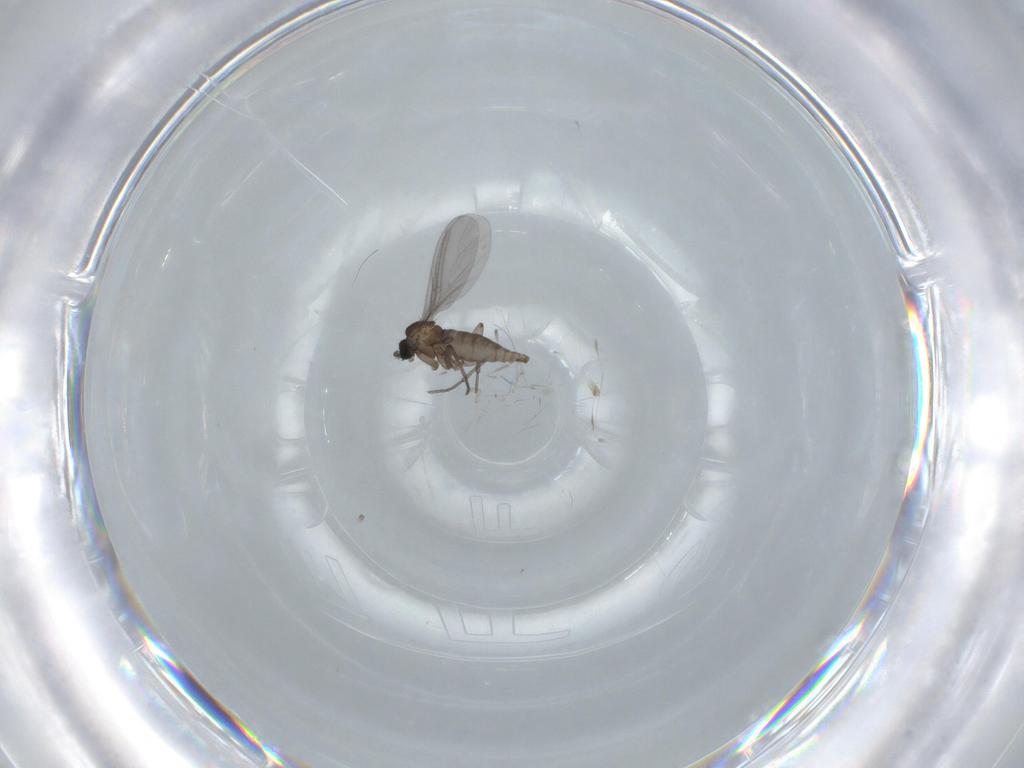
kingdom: Animalia
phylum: Arthropoda
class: Insecta
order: Diptera
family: Sciaridae
